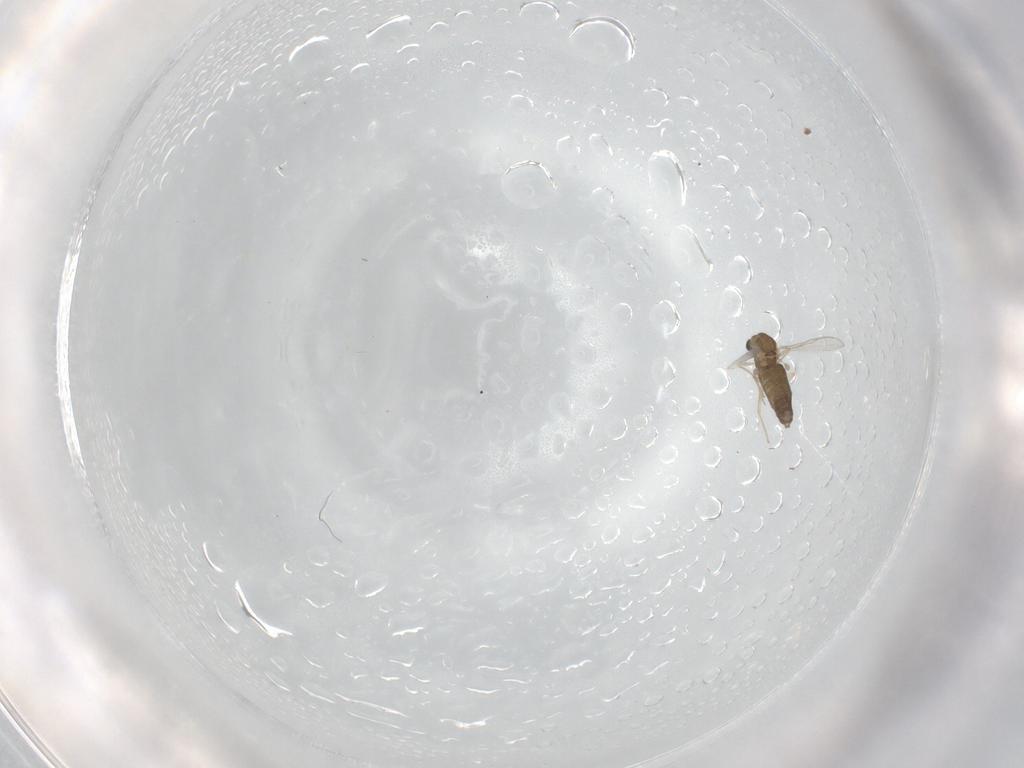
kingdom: Animalia
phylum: Arthropoda
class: Insecta
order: Diptera
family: Chironomidae
